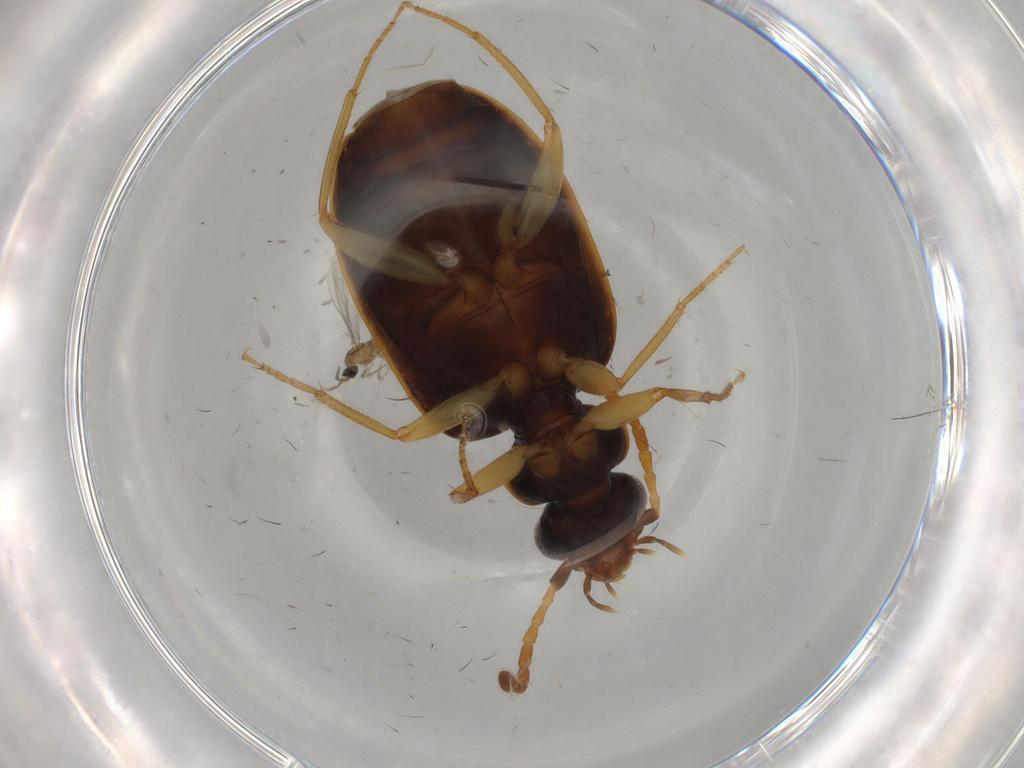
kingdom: Animalia
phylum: Arthropoda
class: Insecta
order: Coleoptera
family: Carabidae
